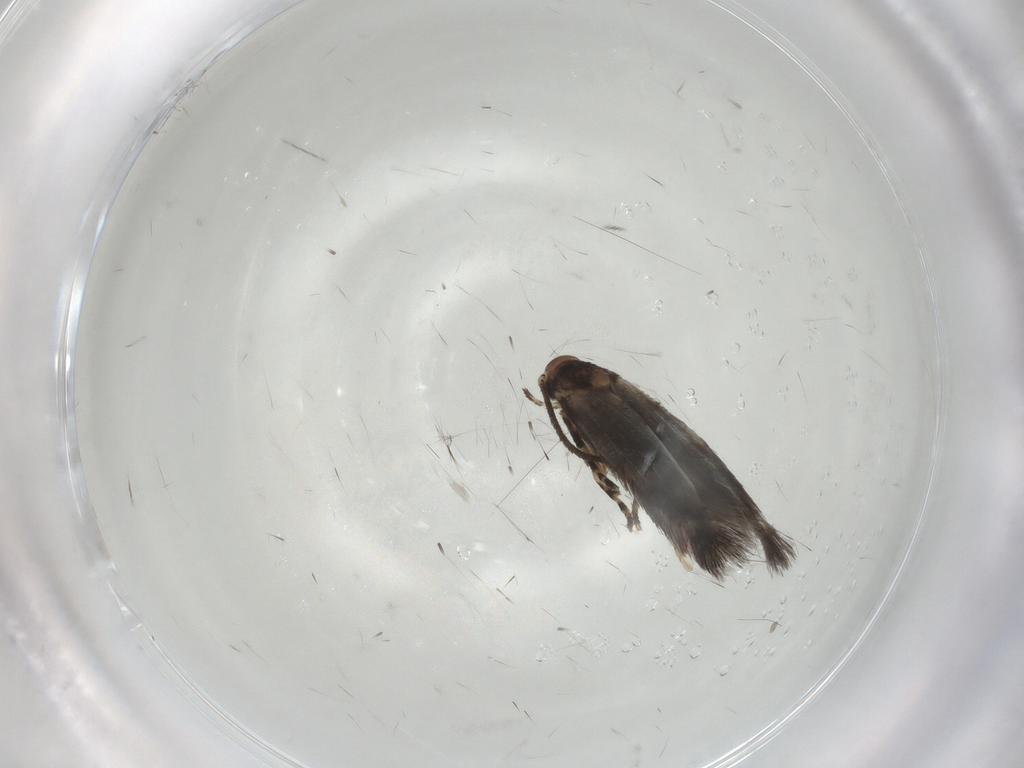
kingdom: Animalia
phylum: Arthropoda
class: Insecta
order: Lepidoptera
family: Elachistidae
